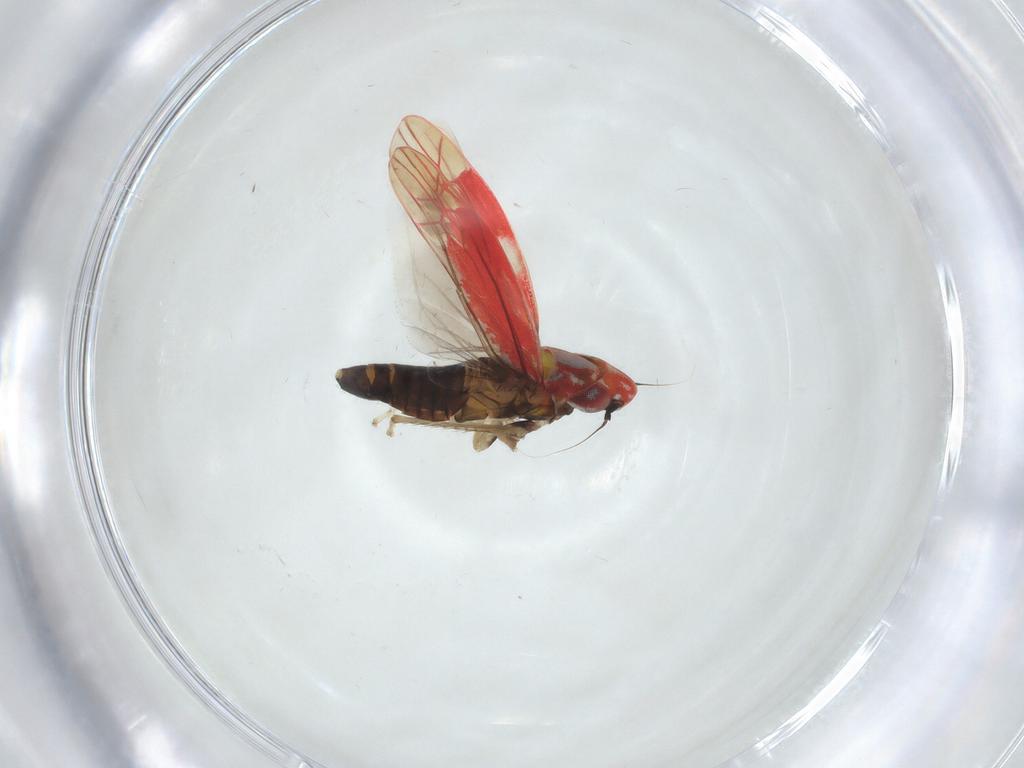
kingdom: Animalia
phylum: Arthropoda
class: Insecta
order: Hemiptera
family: Cicadellidae
